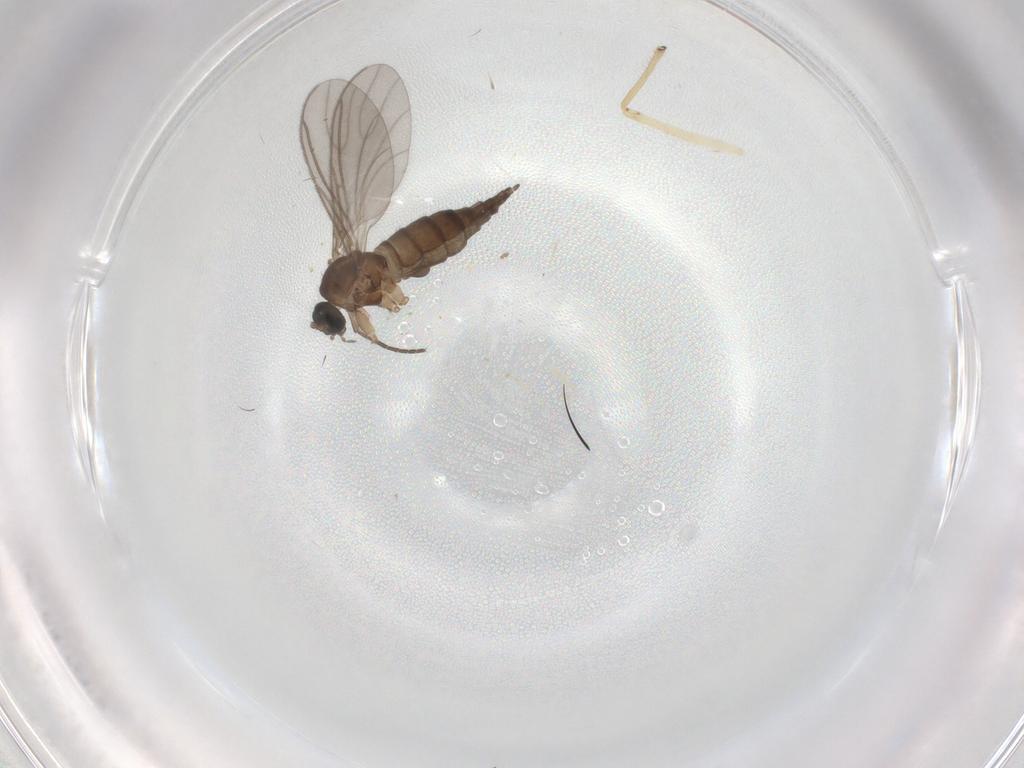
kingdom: Animalia
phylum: Arthropoda
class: Insecta
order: Diptera
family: Sciaridae
